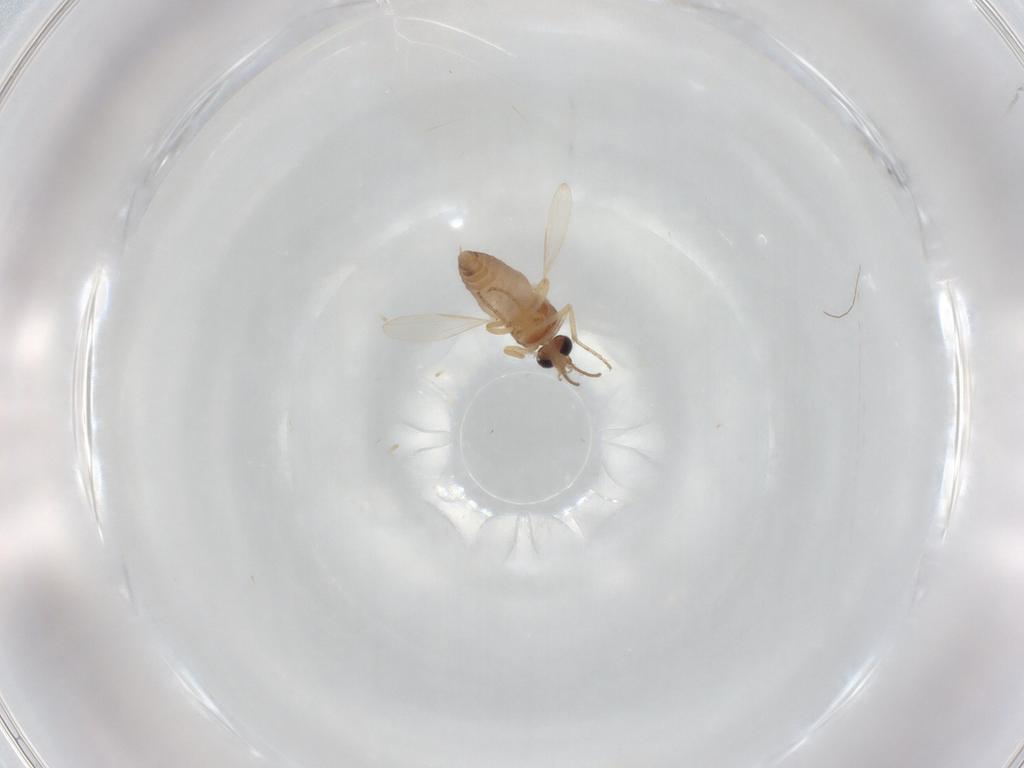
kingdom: Animalia
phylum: Arthropoda
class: Insecta
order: Diptera
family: Ceratopogonidae
